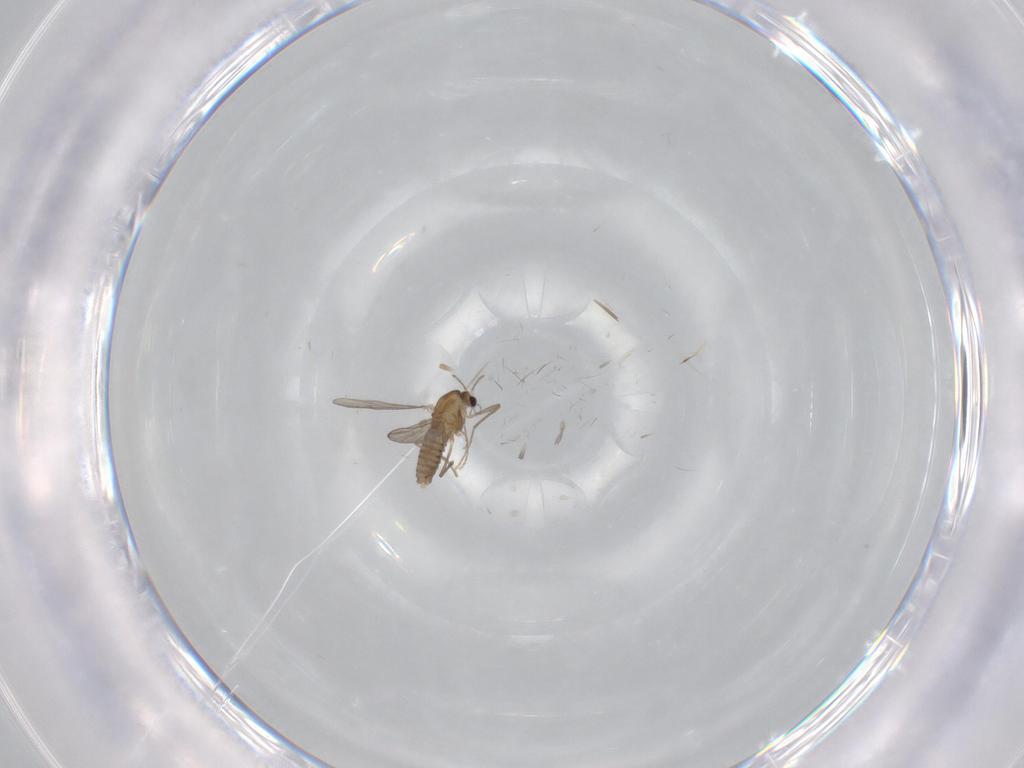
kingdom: Animalia
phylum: Arthropoda
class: Insecta
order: Diptera
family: Chironomidae
